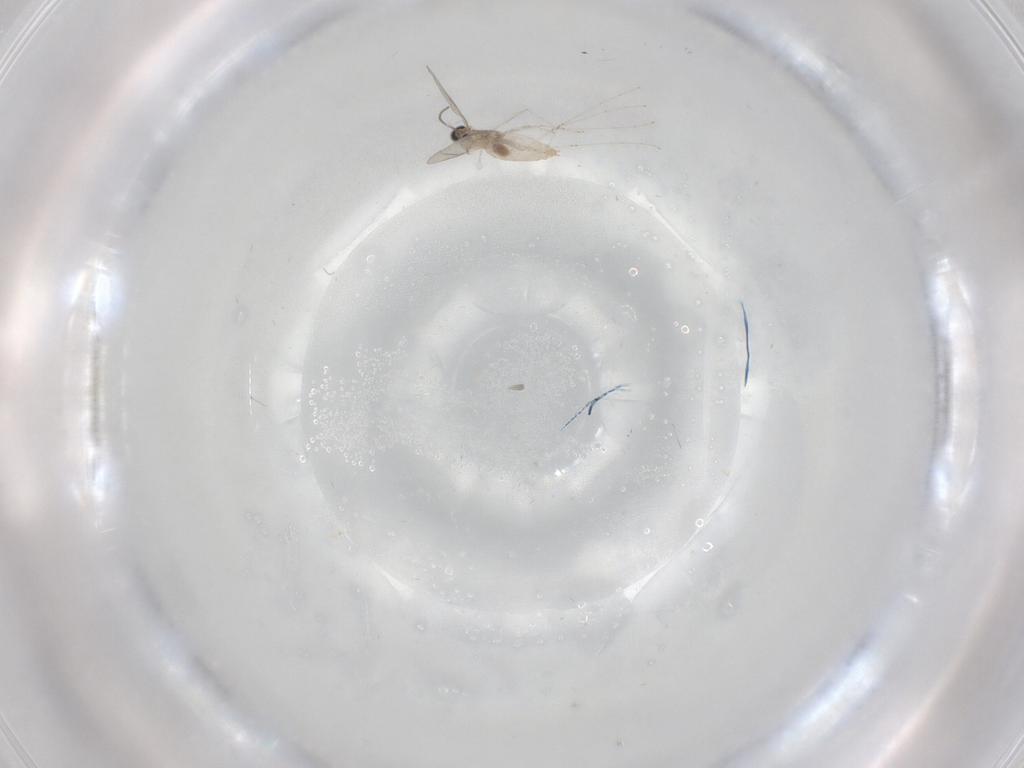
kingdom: Animalia
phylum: Arthropoda
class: Insecta
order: Diptera
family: Cecidomyiidae
